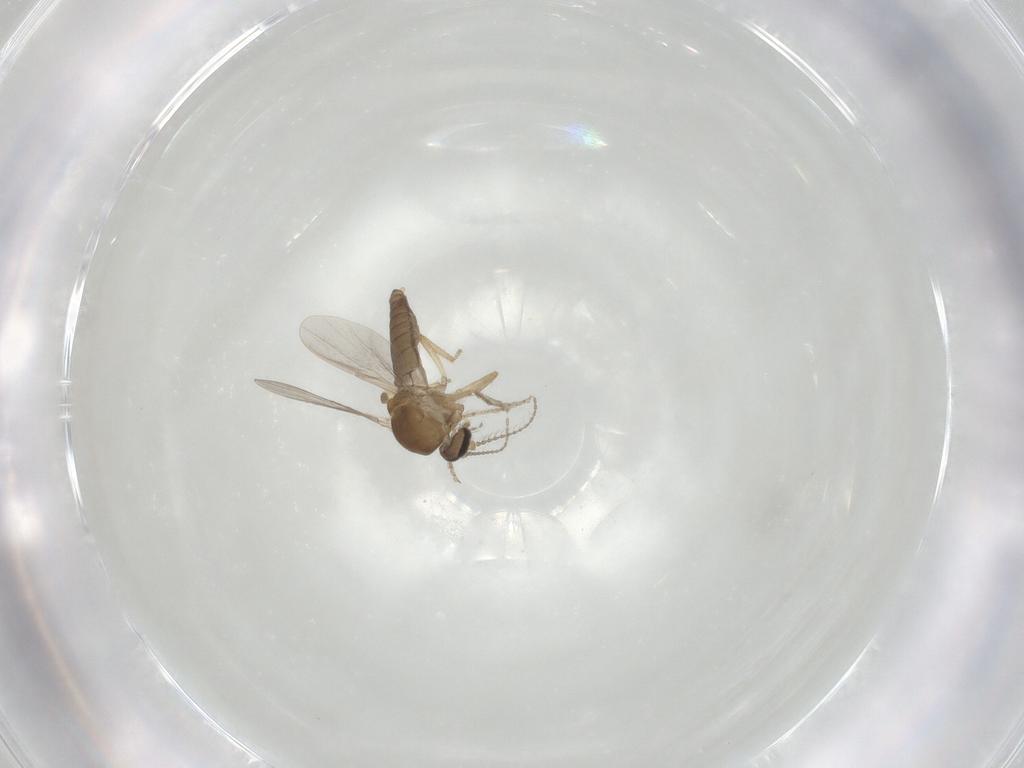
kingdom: Animalia
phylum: Arthropoda
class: Insecta
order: Diptera
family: Ceratopogonidae
